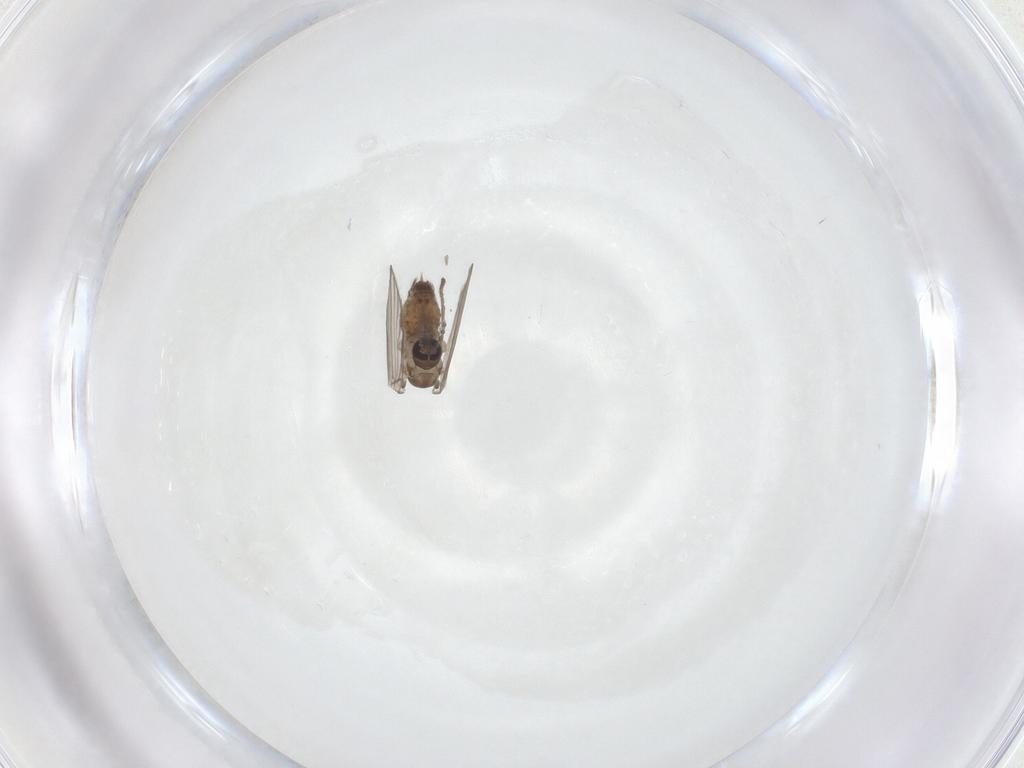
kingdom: Animalia
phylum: Arthropoda
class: Insecta
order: Diptera
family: Psychodidae
